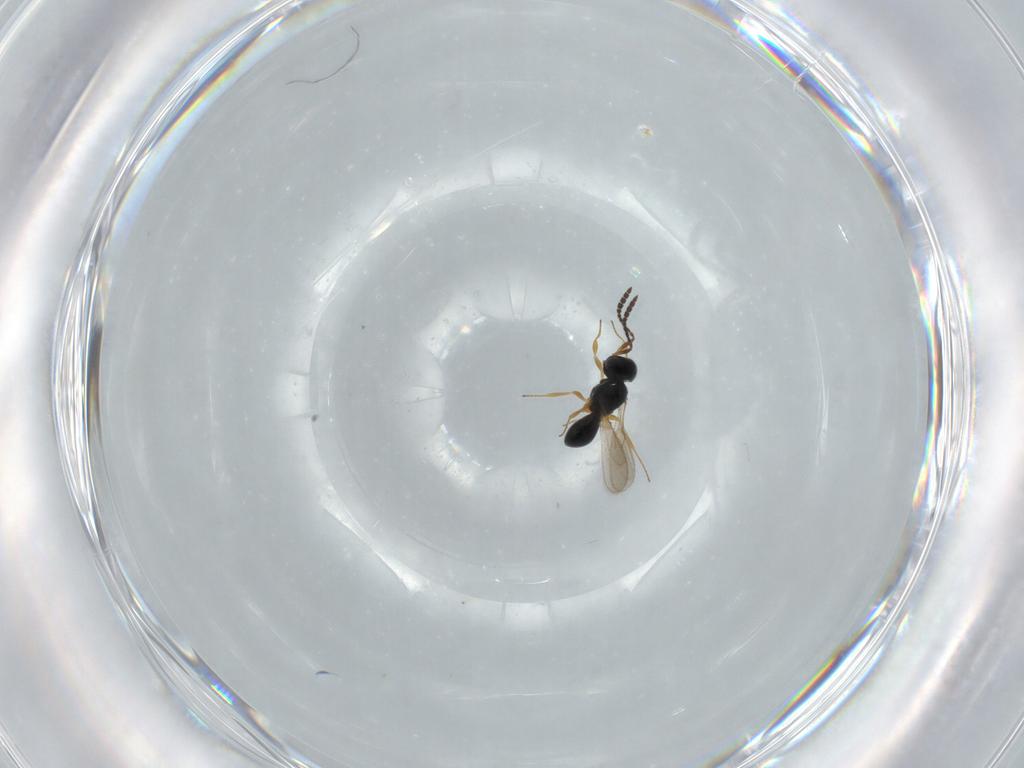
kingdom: Animalia
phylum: Arthropoda
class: Insecta
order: Hymenoptera
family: Scelionidae
